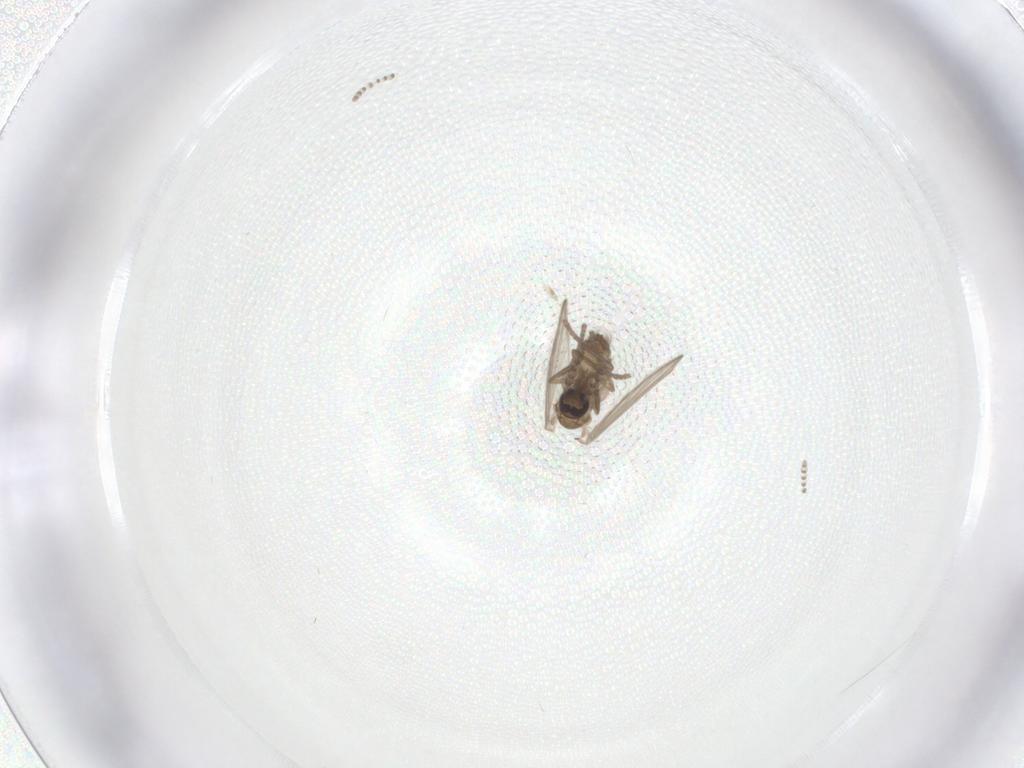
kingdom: Animalia
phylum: Arthropoda
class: Insecta
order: Diptera
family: Psychodidae
